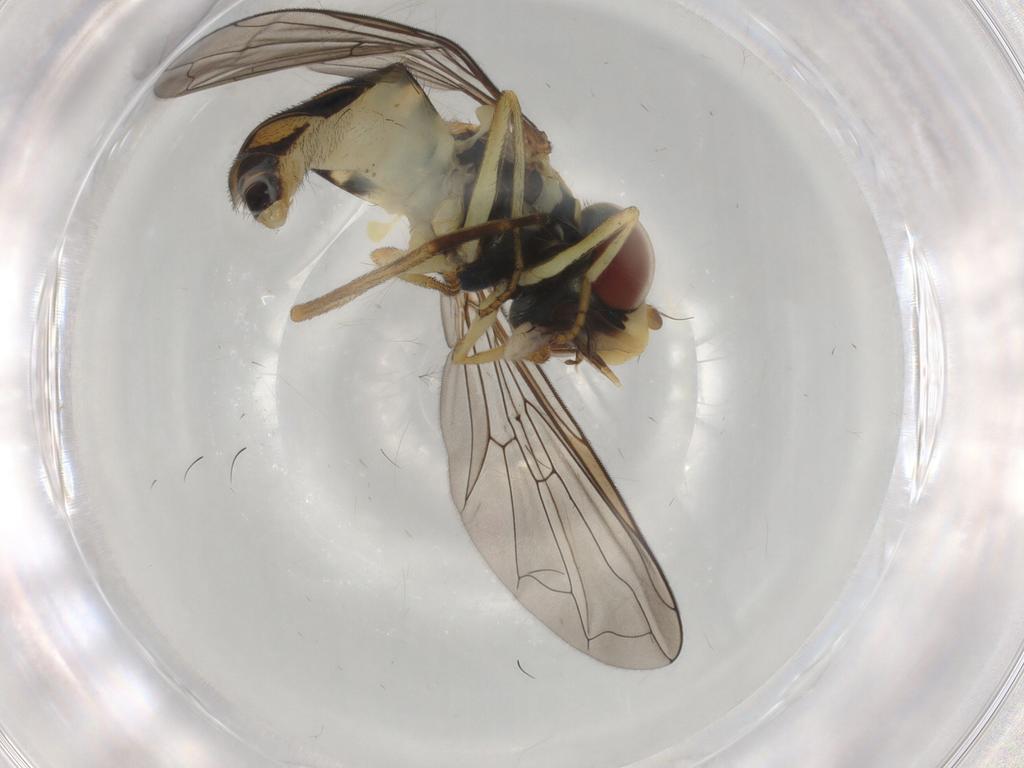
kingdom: Animalia
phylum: Arthropoda
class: Insecta
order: Diptera
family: Syrphidae
